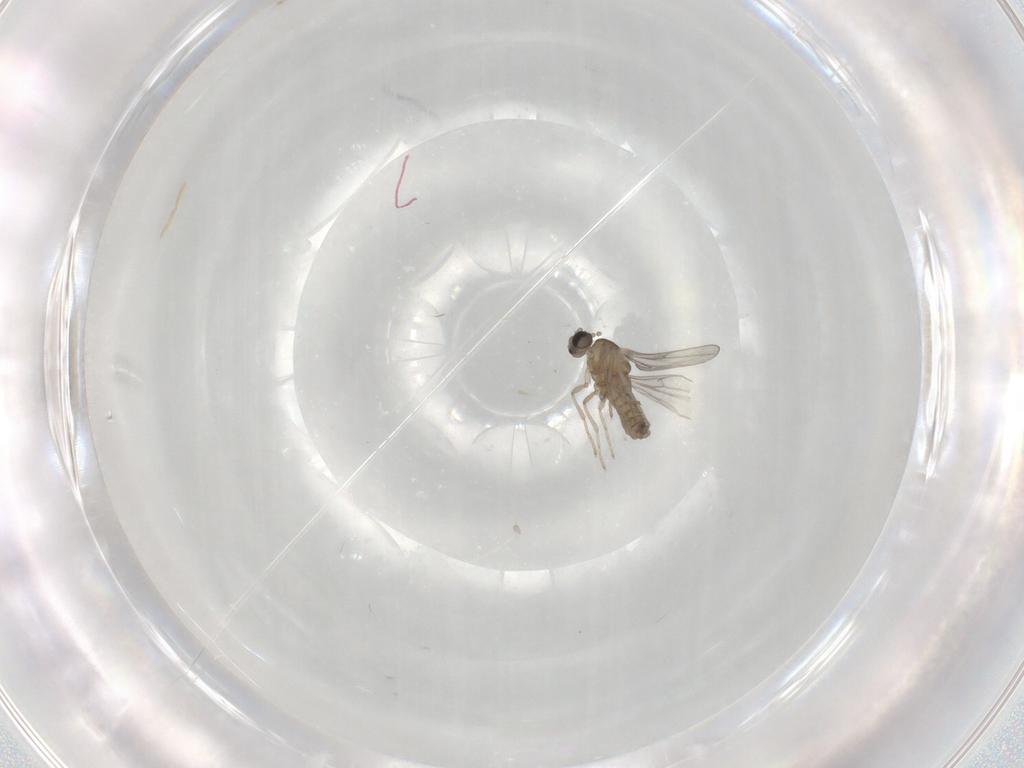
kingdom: Animalia
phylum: Arthropoda
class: Insecta
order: Diptera
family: Cecidomyiidae
